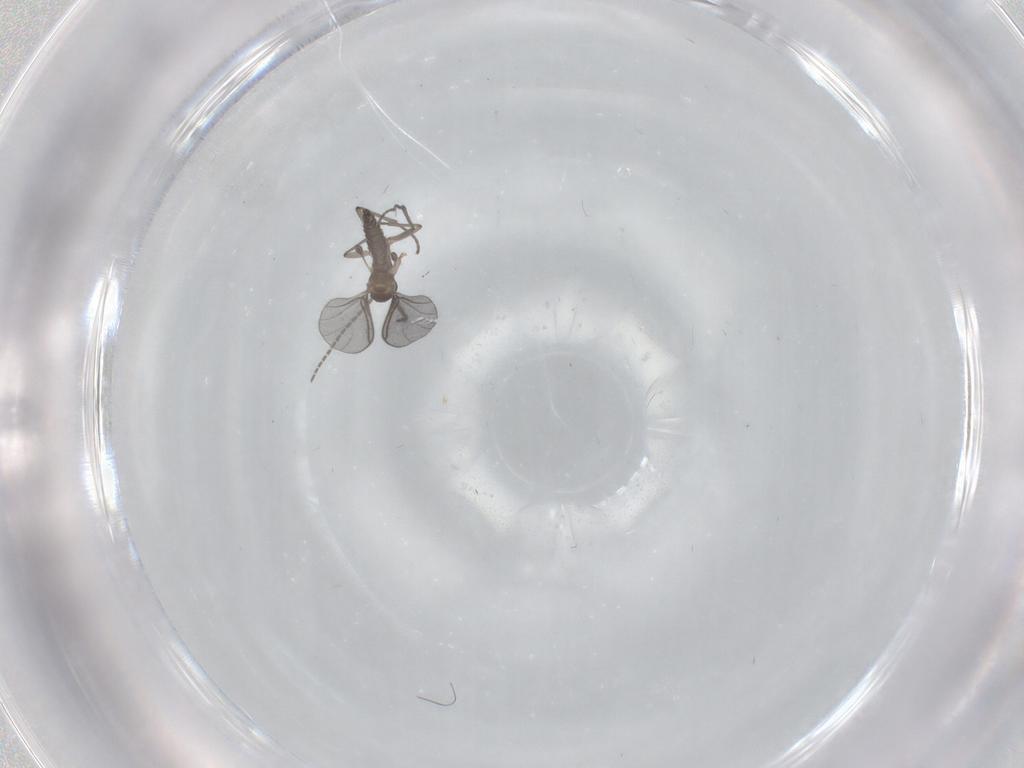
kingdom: Animalia
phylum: Arthropoda
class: Insecta
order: Diptera
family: Sciaridae
